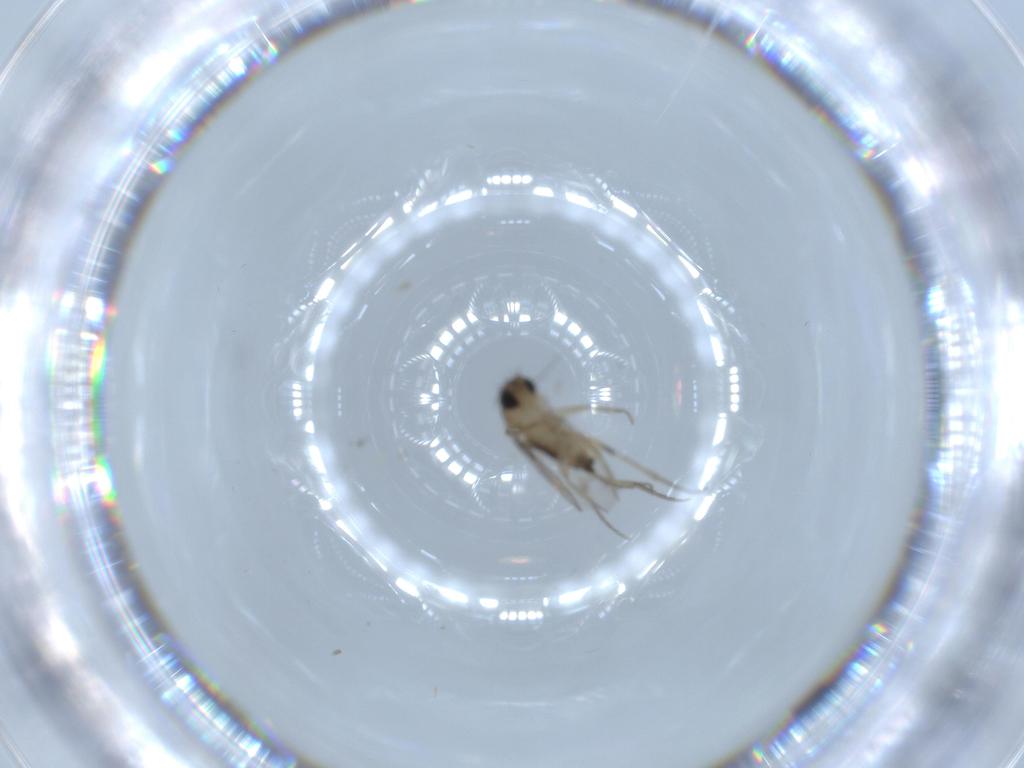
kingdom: Animalia
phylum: Arthropoda
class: Insecta
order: Diptera
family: Phoridae
